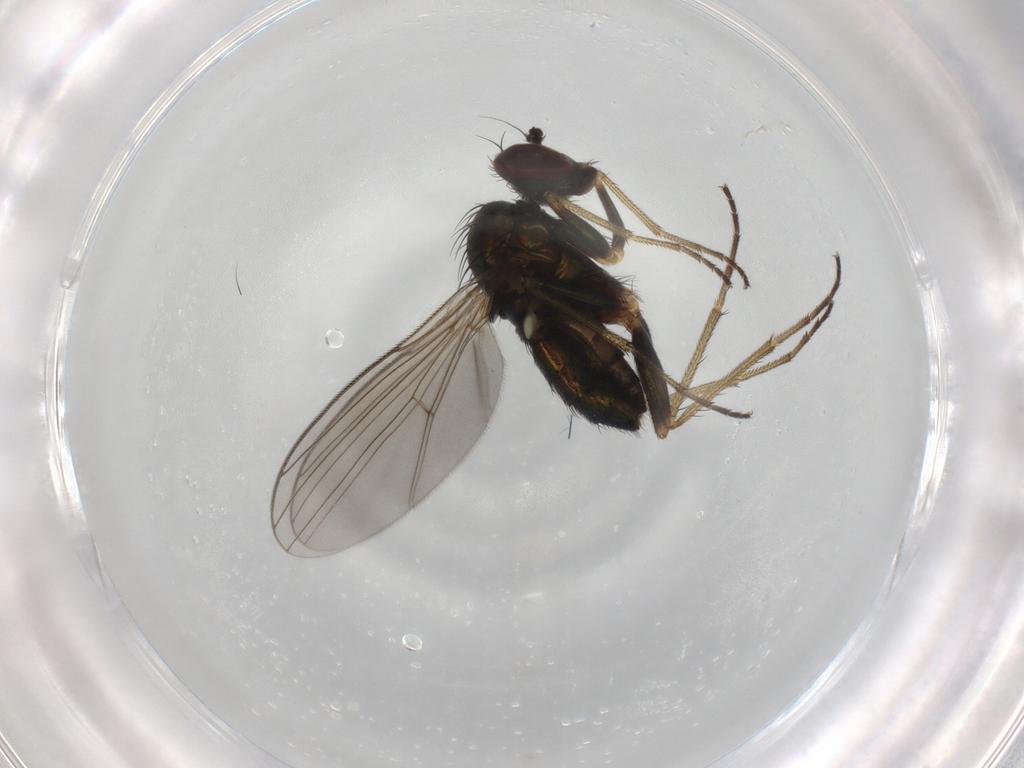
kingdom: Animalia
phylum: Arthropoda
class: Insecta
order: Diptera
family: Dolichopodidae
